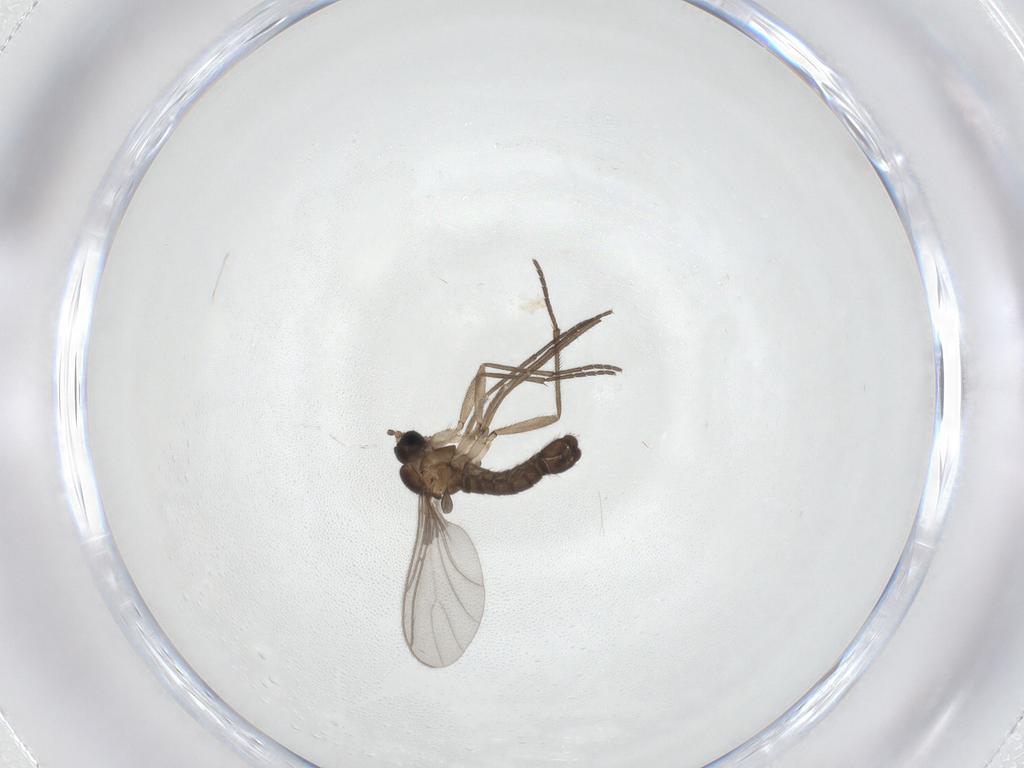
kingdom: Animalia
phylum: Arthropoda
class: Insecta
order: Diptera
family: Sciaridae
